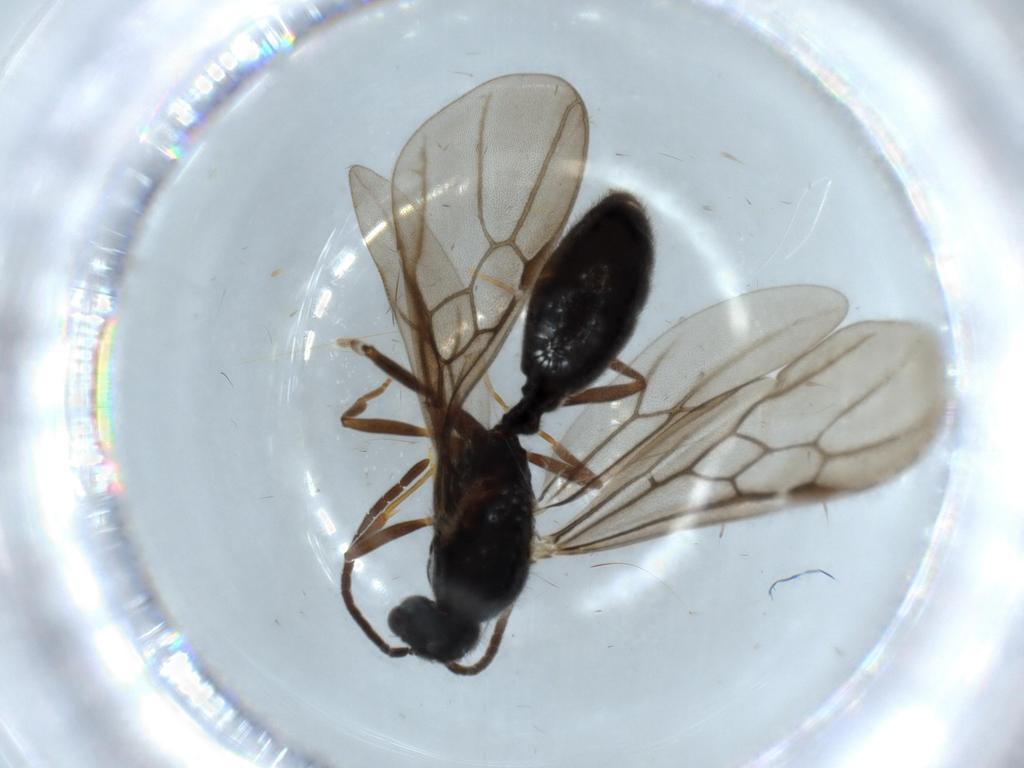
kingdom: Animalia
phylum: Arthropoda
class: Insecta
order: Hymenoptera
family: Formicidae
